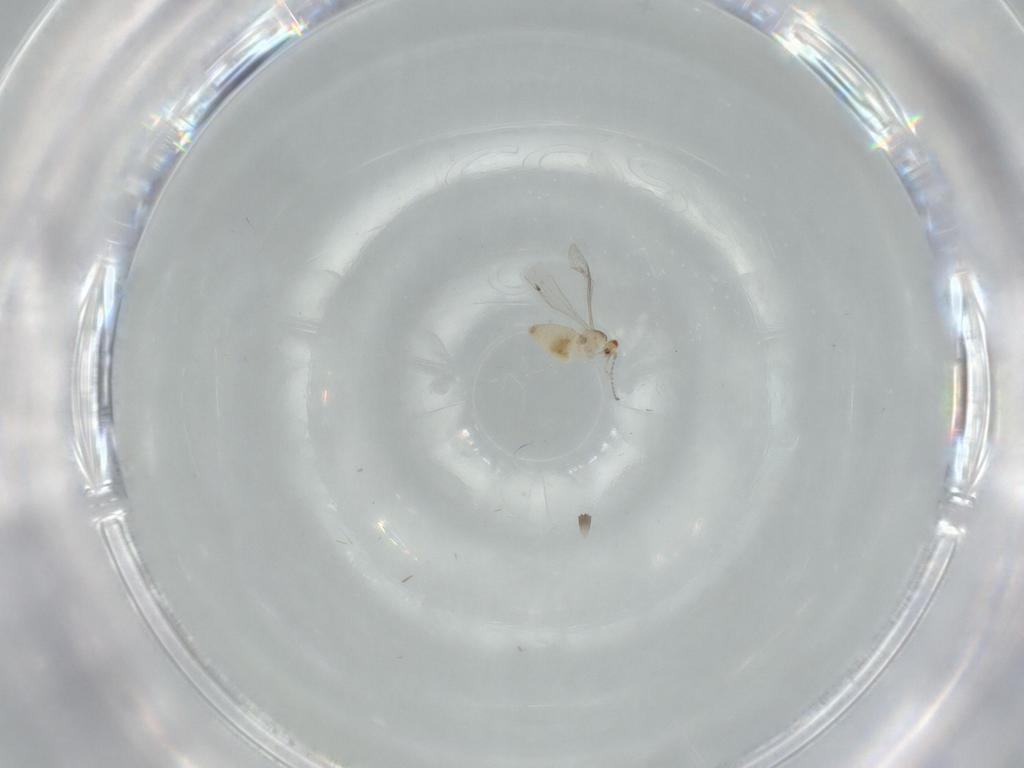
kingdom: Animalia
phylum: Arthropoda
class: Insecta
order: Diptera
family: Cecidomyiidae
